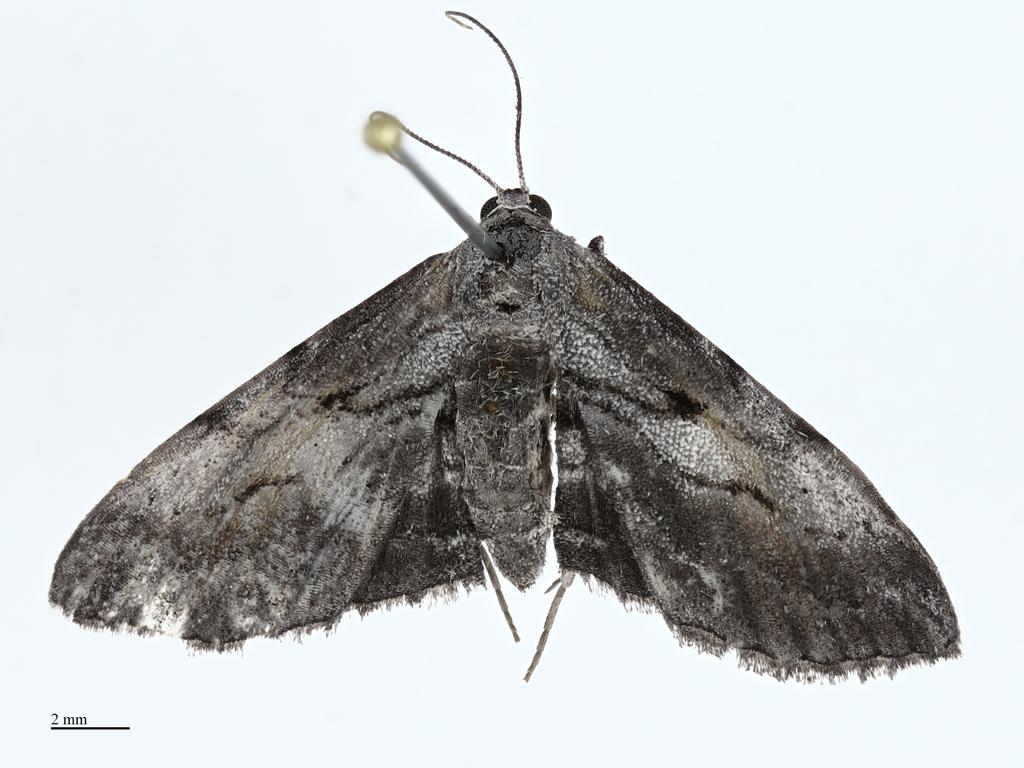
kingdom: Animalia
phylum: Arthropoda
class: Insecta
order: Lepidoptera
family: Geometridae
